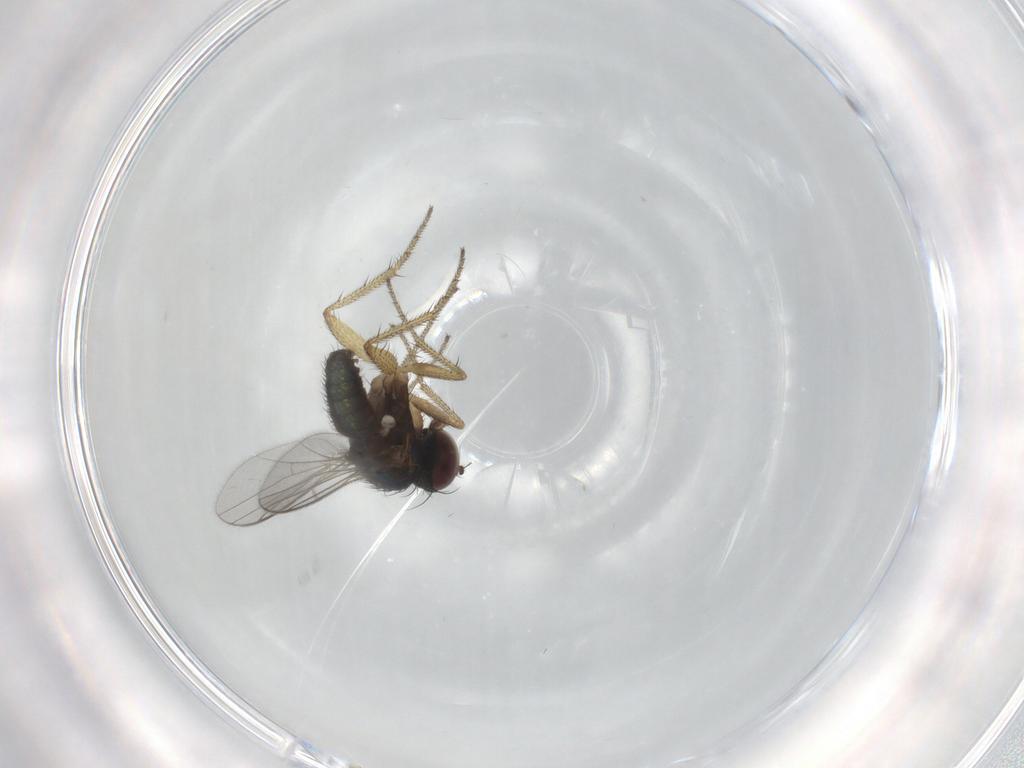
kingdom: Animalia
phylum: Arthropoda
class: Insecta
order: Diptera
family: Dolichopodidae
